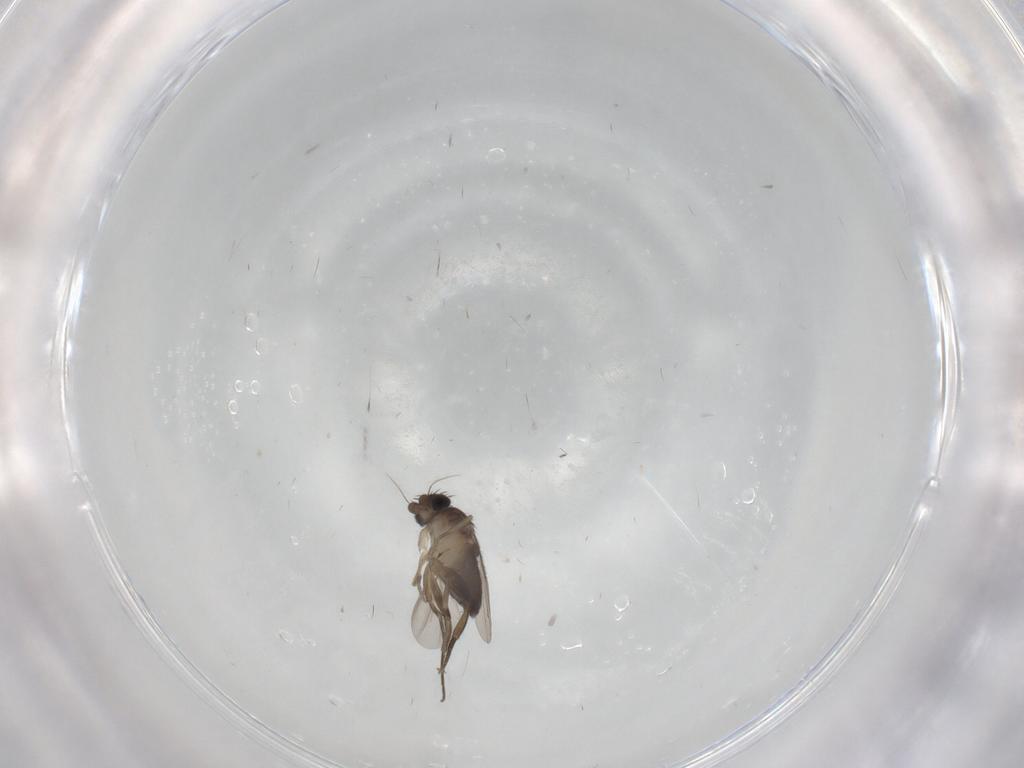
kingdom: Animalia
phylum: Arthropoda
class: Insecta
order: Diptera
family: Phoridae
